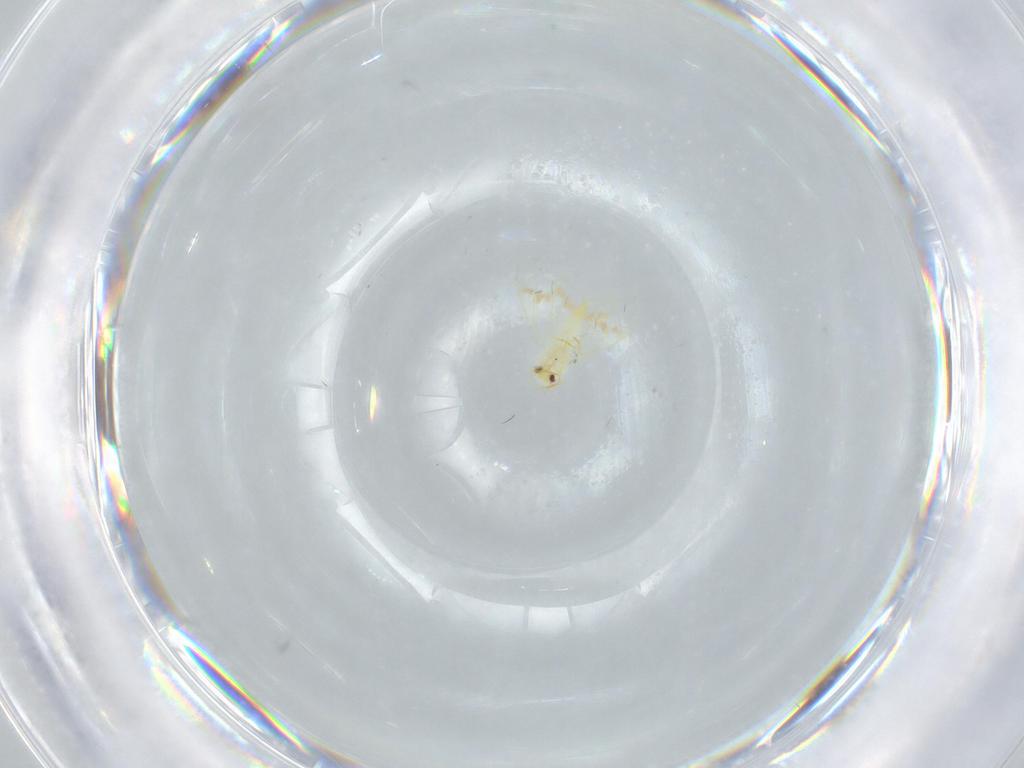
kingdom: Animalia
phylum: Arthropoda
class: Insecta
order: Hemiptera
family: Aleyrodidae
